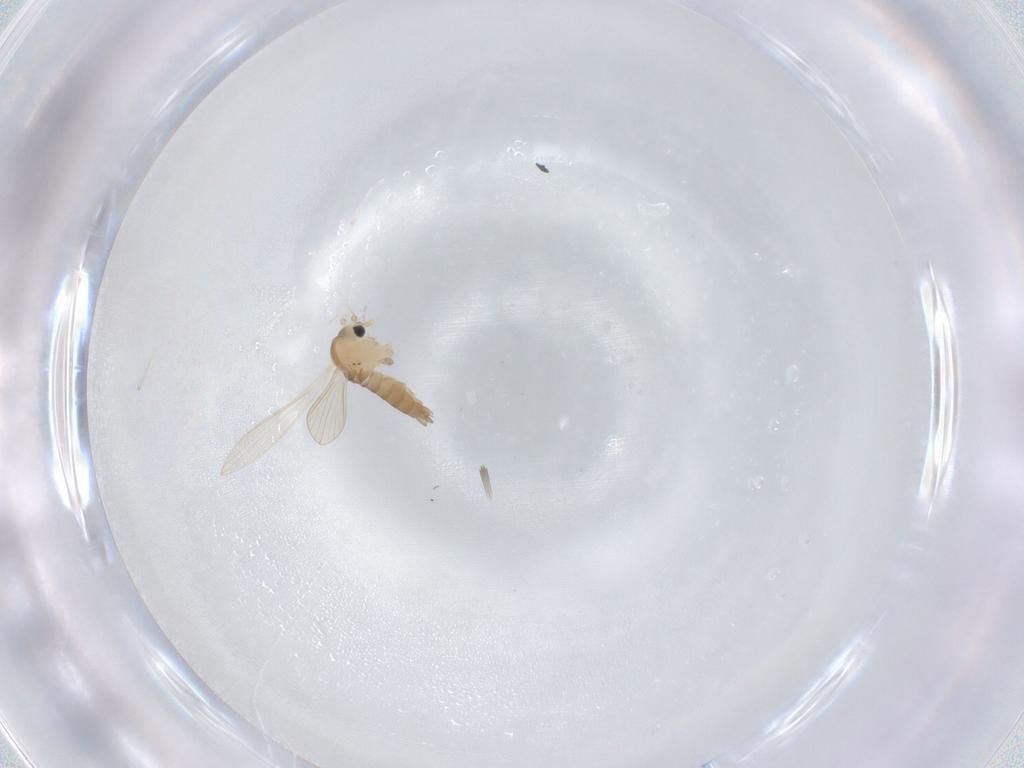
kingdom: Animalia
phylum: Arthropoda
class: Insecta
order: Diptera
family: Psychodidae
